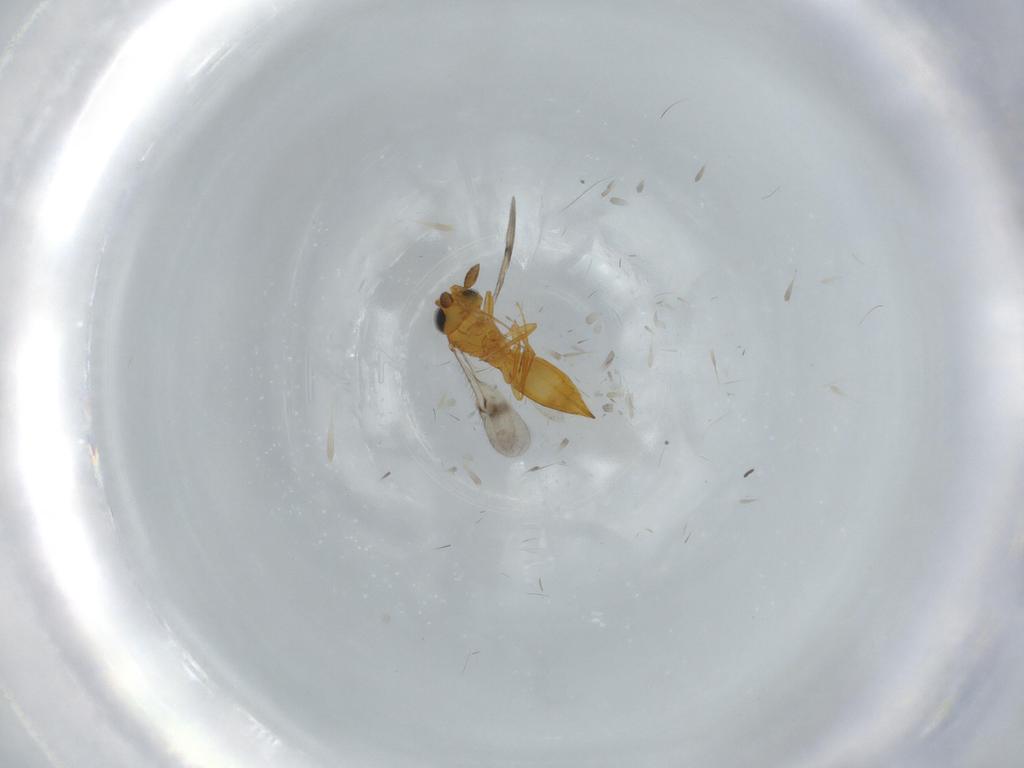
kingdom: Animalia
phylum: Arthropoda
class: Insecta
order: Hymenoptera
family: Scelionidae
